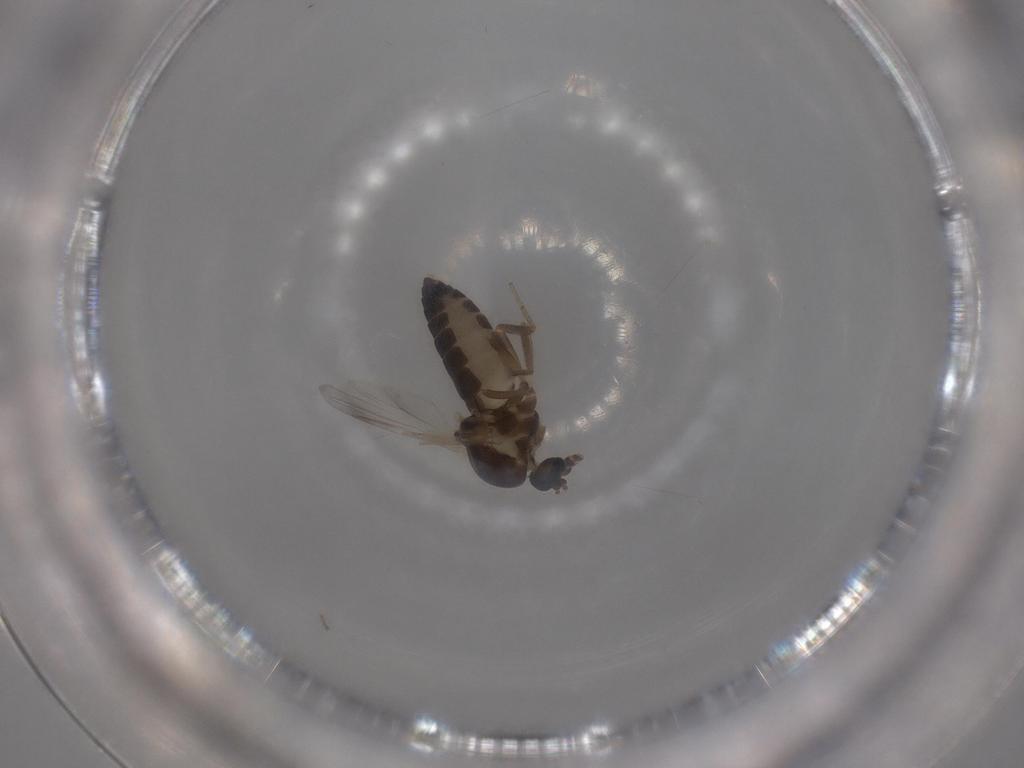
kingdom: Animalia
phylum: Arthropoda
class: Insecta
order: Diptera
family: Ceratopogonidae
